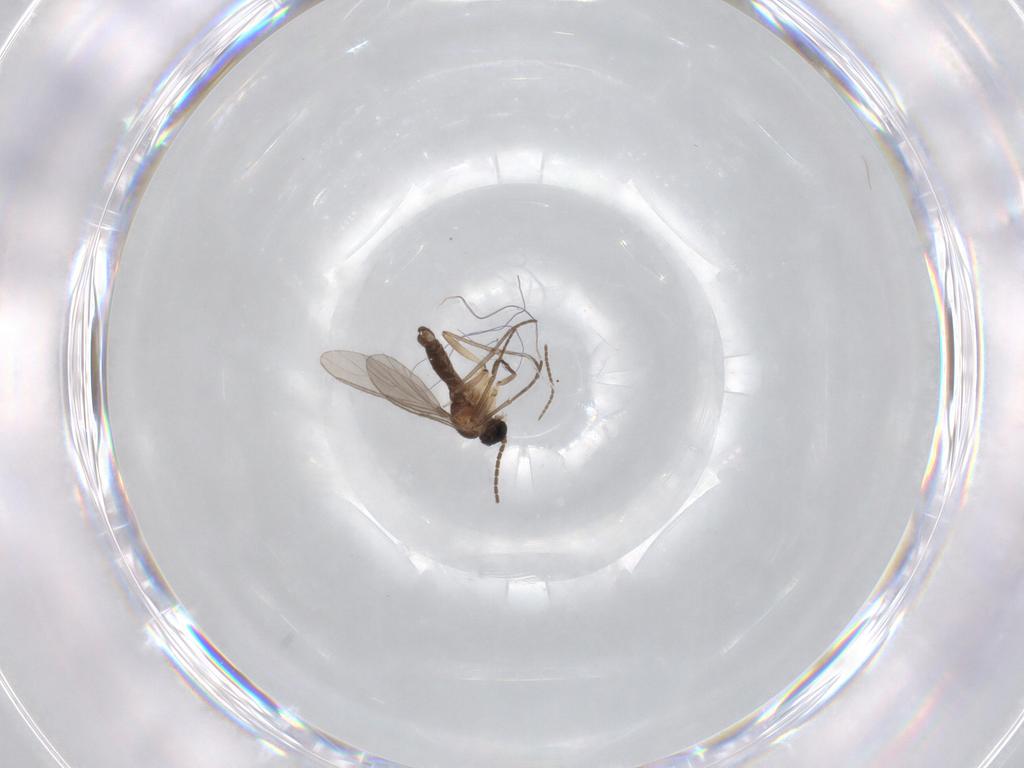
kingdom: Animalia
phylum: Arthropoda
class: Insecta
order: Diptera
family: Sciaridae
